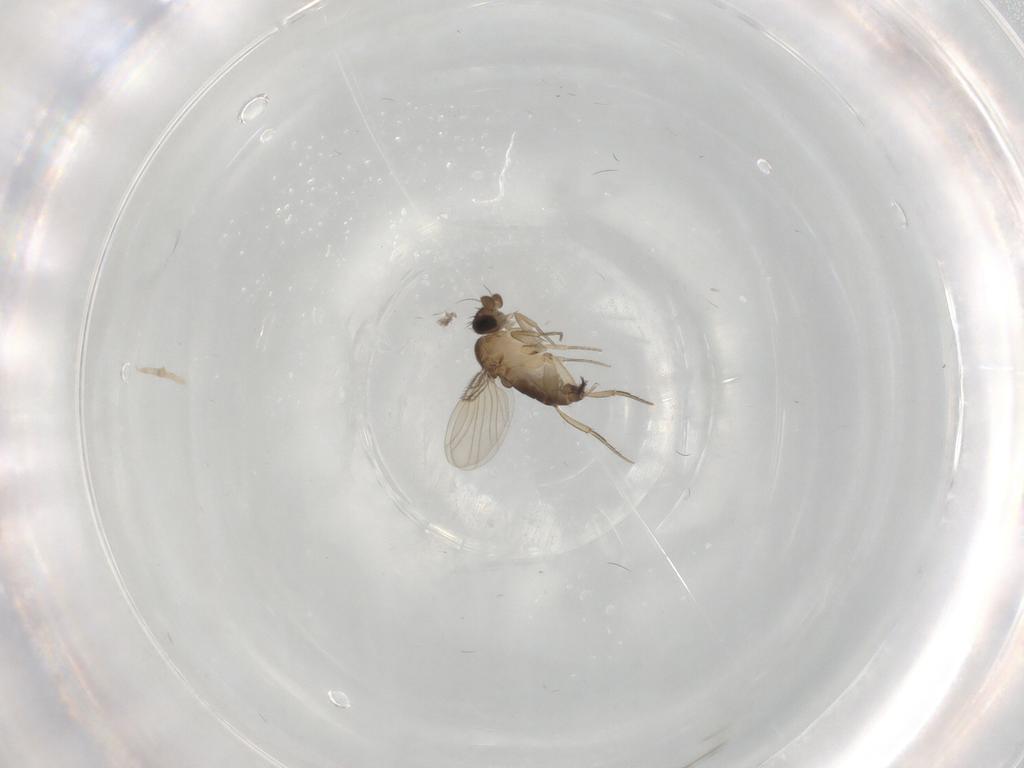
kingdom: Animalia
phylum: Arthropoda
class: Insecta
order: Diptera
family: Phoridae
